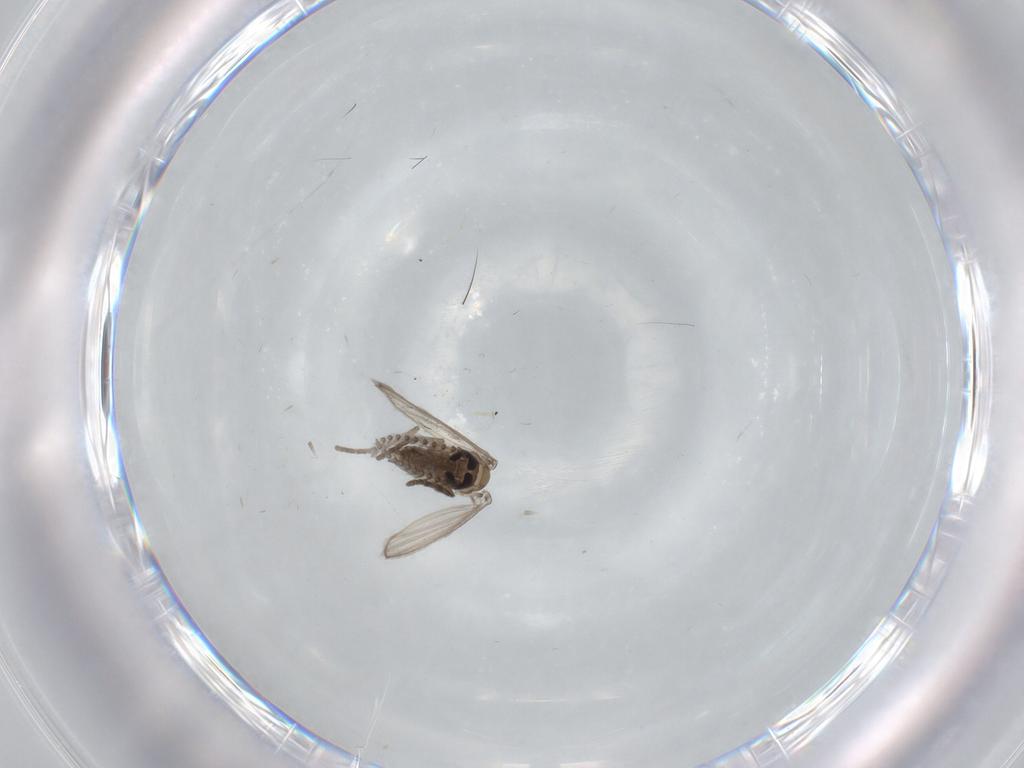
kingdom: Animalia
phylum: Arthropoda
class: Insecta
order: Diptera
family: Psychodidae
